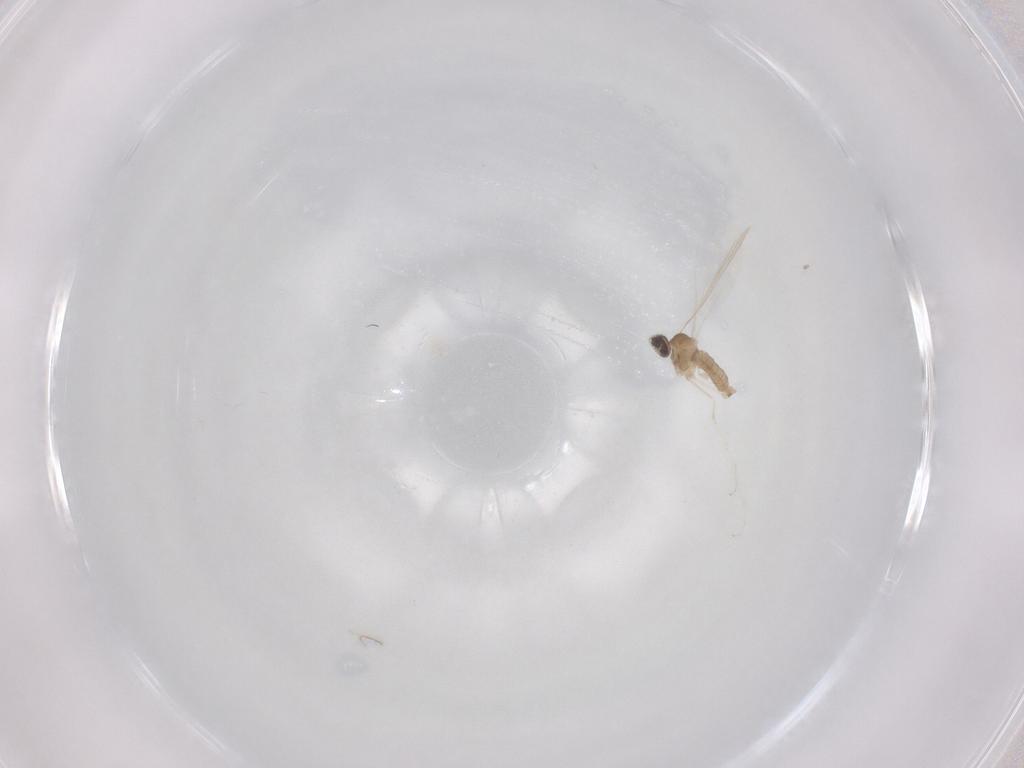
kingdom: Animalia
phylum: Arthropoda
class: Insecta
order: Diptera
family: Cecidomyiidae
